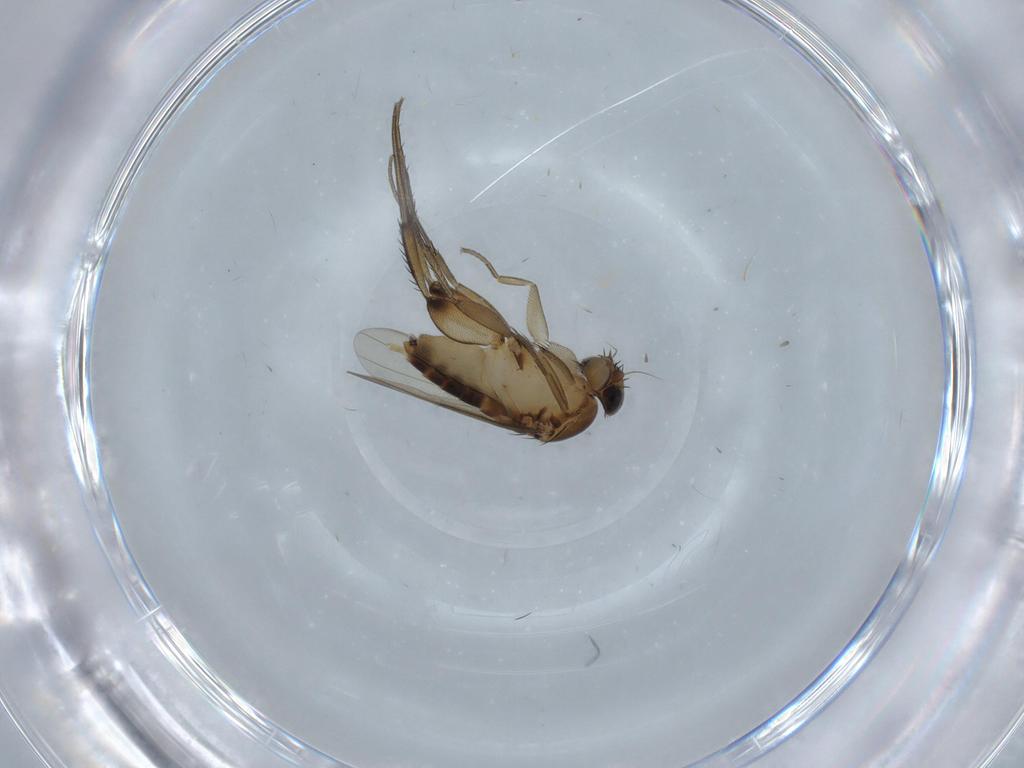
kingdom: Animalia
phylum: Arthropoda
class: Insecta
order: Diptera
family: Phoridae
